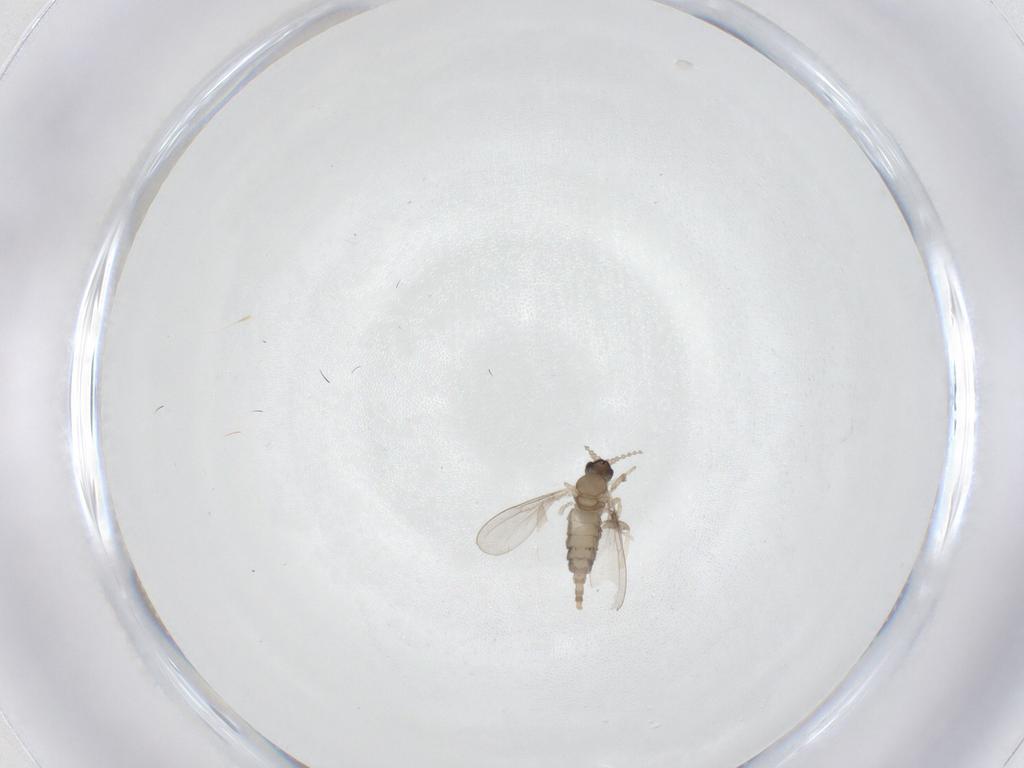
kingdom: Animalia
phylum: Arthropoda
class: Insecta
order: Diptera
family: Cecidomyiidae
